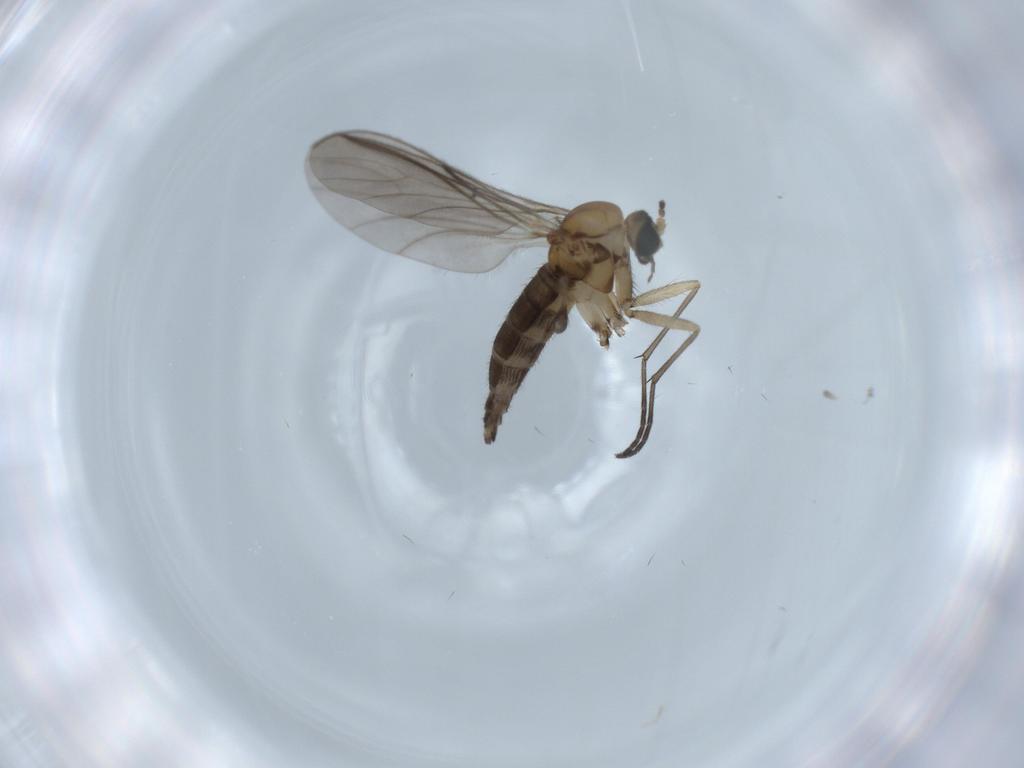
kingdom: Animalia
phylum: Arthropoda
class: Insecta
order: Diptera
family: Sciaridae
